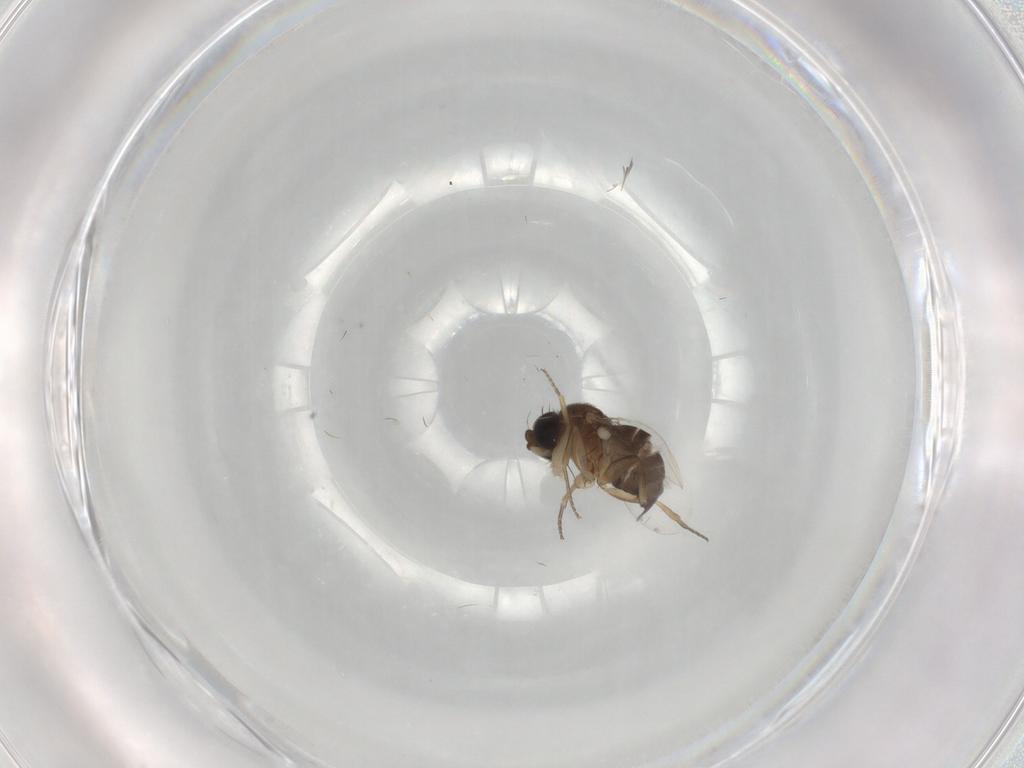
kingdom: Animalia
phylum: Arthropoda
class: Insecta
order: Diptera
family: Phoridae
